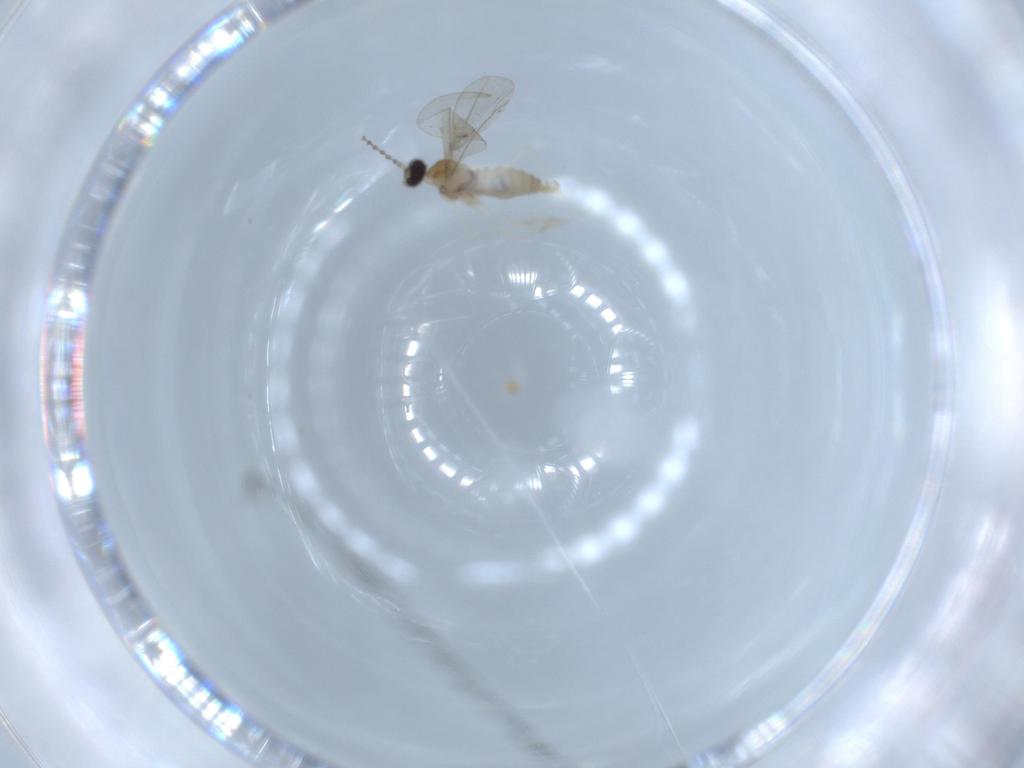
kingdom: Animalia
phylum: Arthropoda
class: Insecta
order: Diptera
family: Cecidomyiidae
